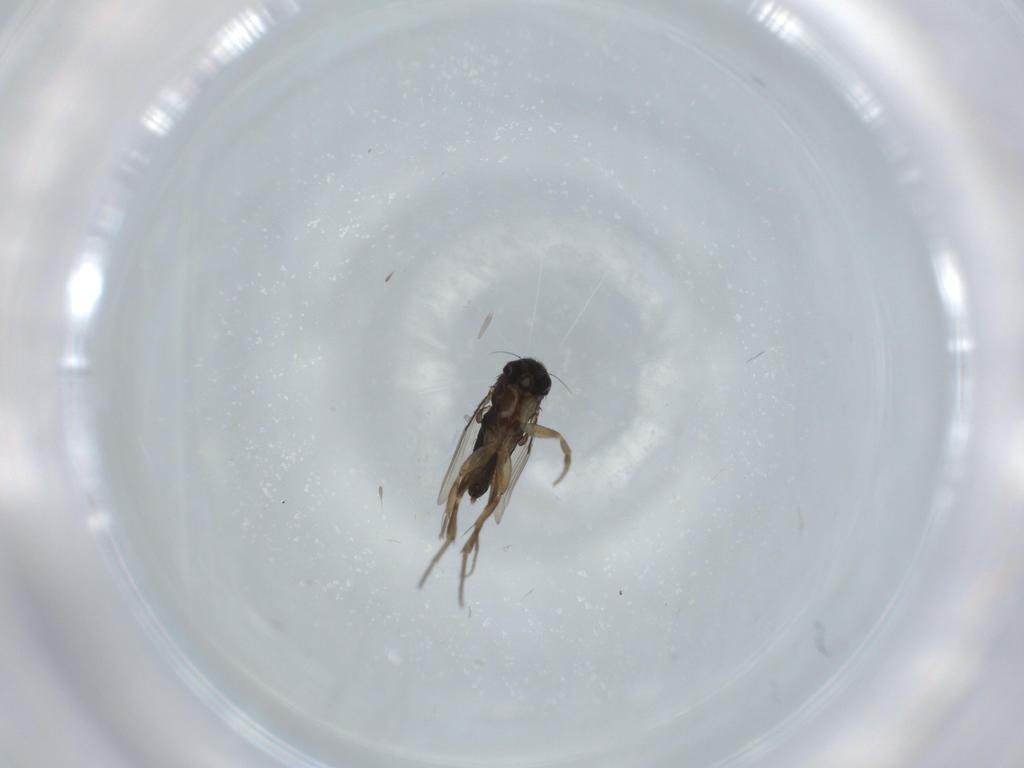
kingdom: Animalia
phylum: Arthropoda
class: Insecta
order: Diptera
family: Phoridae
